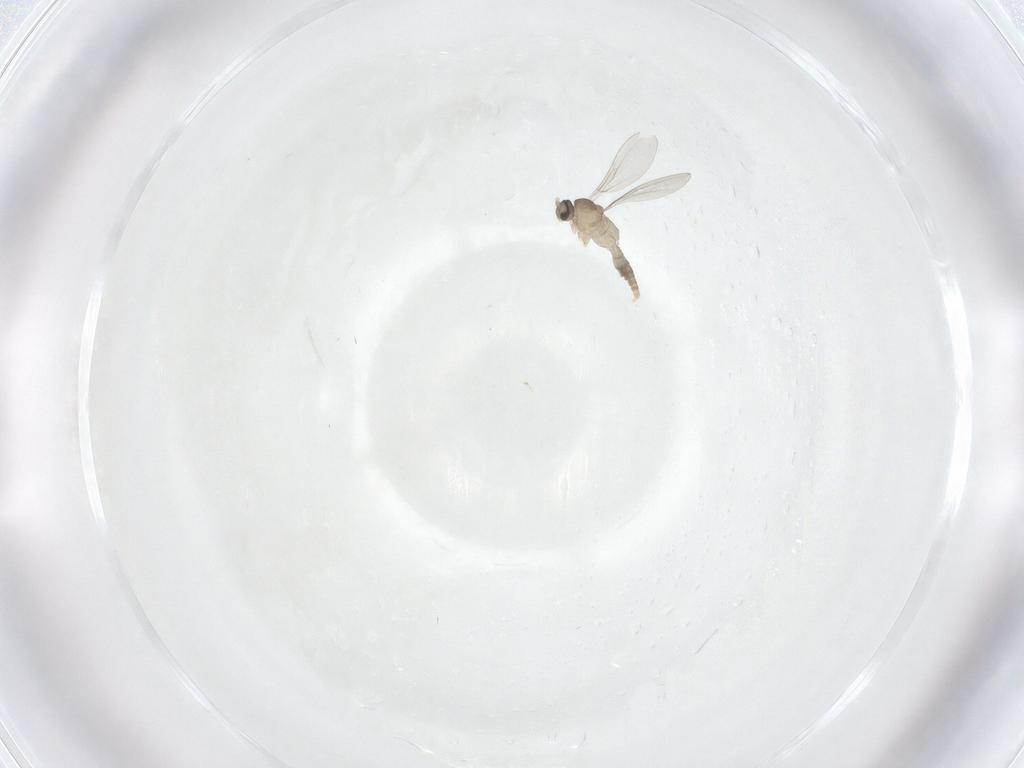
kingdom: Animalia
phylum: Arthropoda
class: Insecta
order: Diptera
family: Cecidomyiidae
